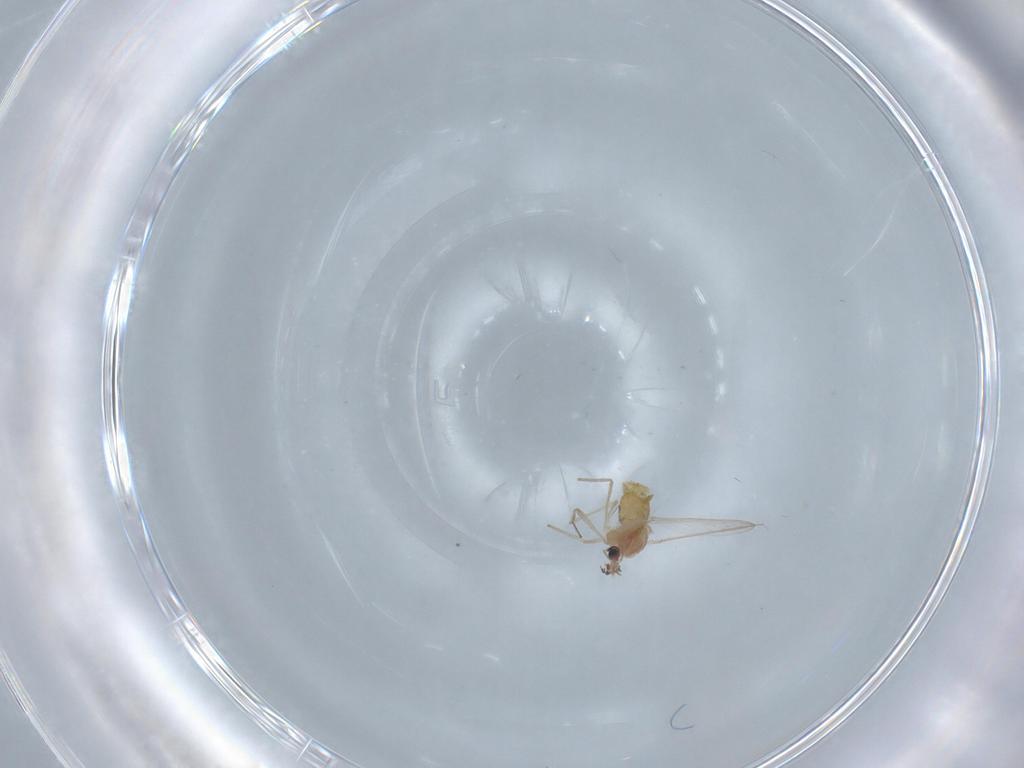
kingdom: Animalia
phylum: Arthropoda
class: Insecta
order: Diptera
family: Chironomidae
